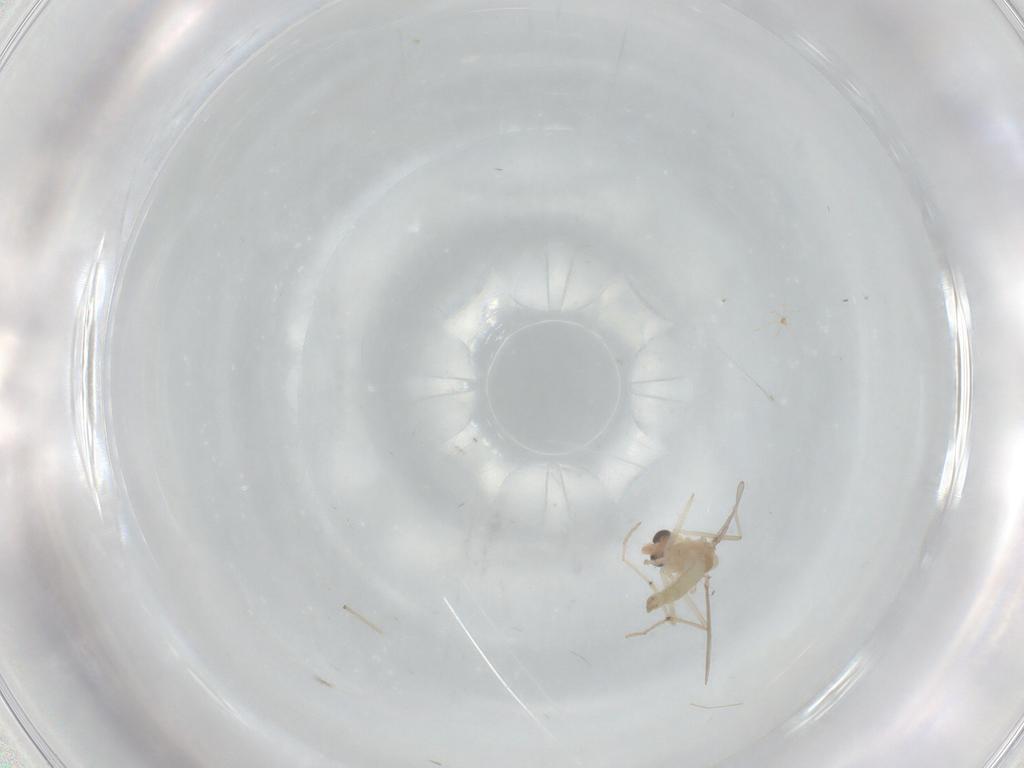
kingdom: Animalia
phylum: Arthropoda
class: Insecta
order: Diptera
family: Chironomidae
